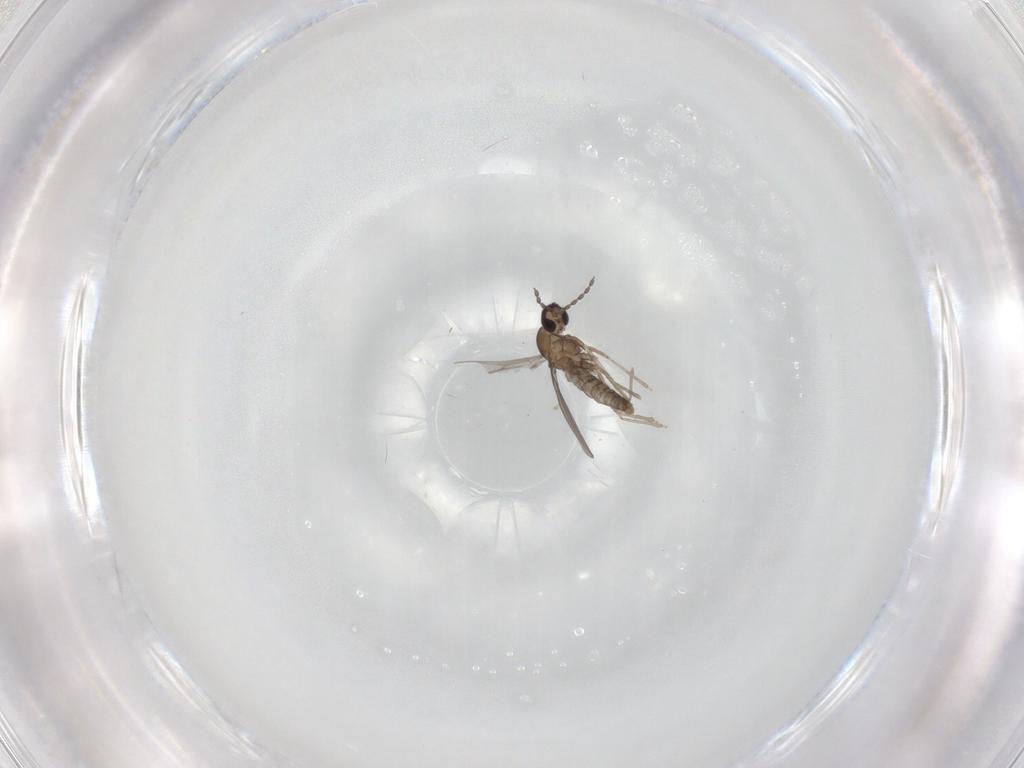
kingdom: Animalia
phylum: Arthropoda
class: Insecta
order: Diptera
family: Cecidomyiidae
